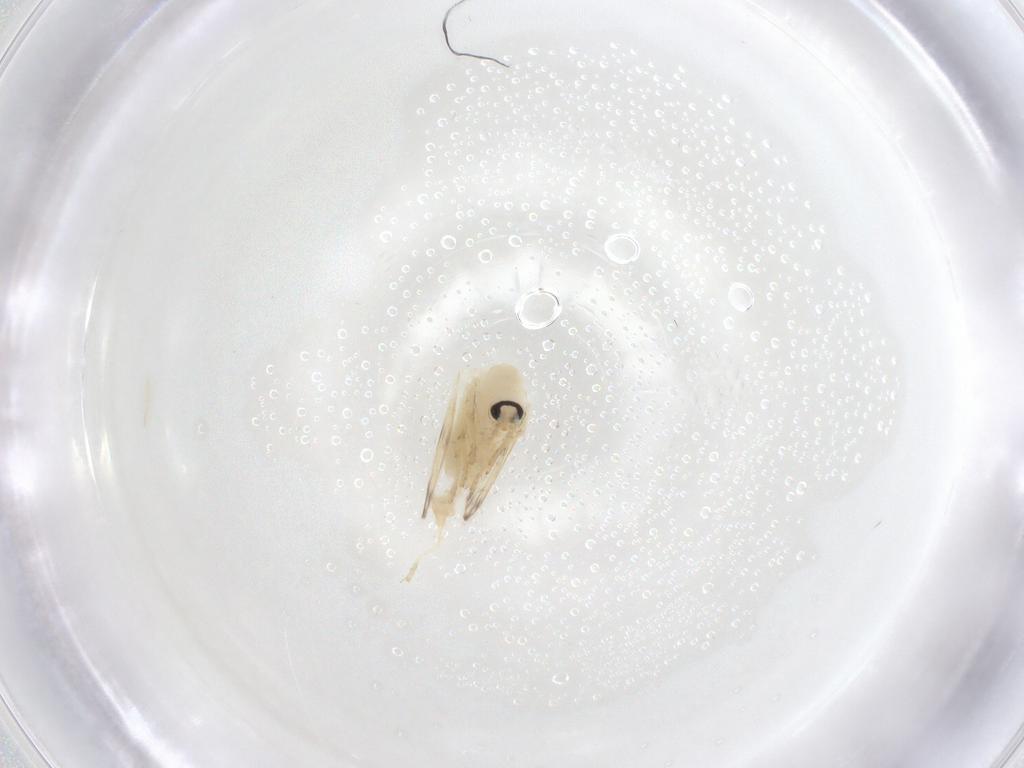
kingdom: Animalia
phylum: Arthropoda
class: Insecta
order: Diptera
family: Psychodidae
